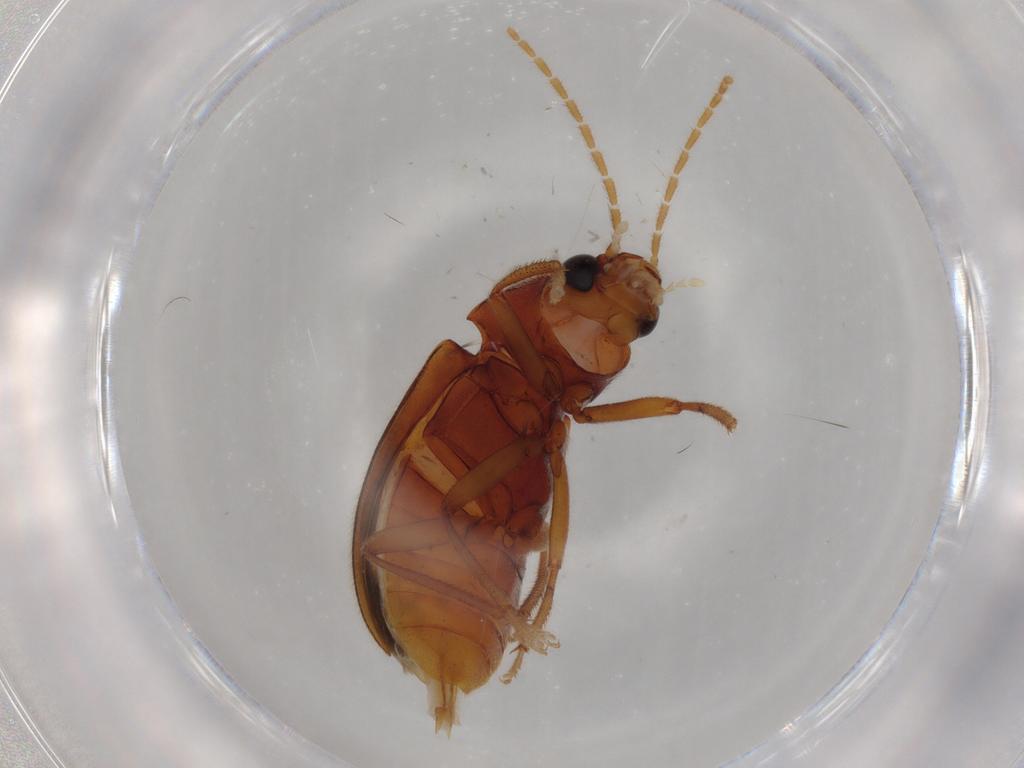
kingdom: Animalia
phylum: Arthropoda
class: Insecta
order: Coleoptera
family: Ptilodactylidae
